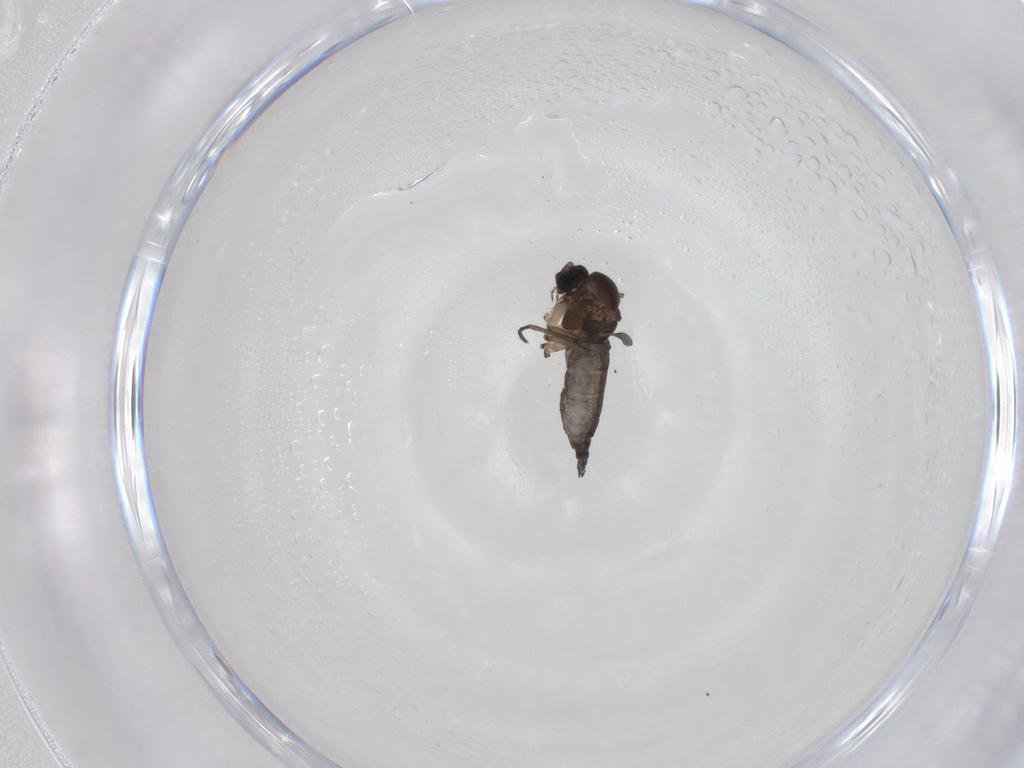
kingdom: Animalia
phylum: Arthropoda
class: Insecta
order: Diptera
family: Sciaridae
